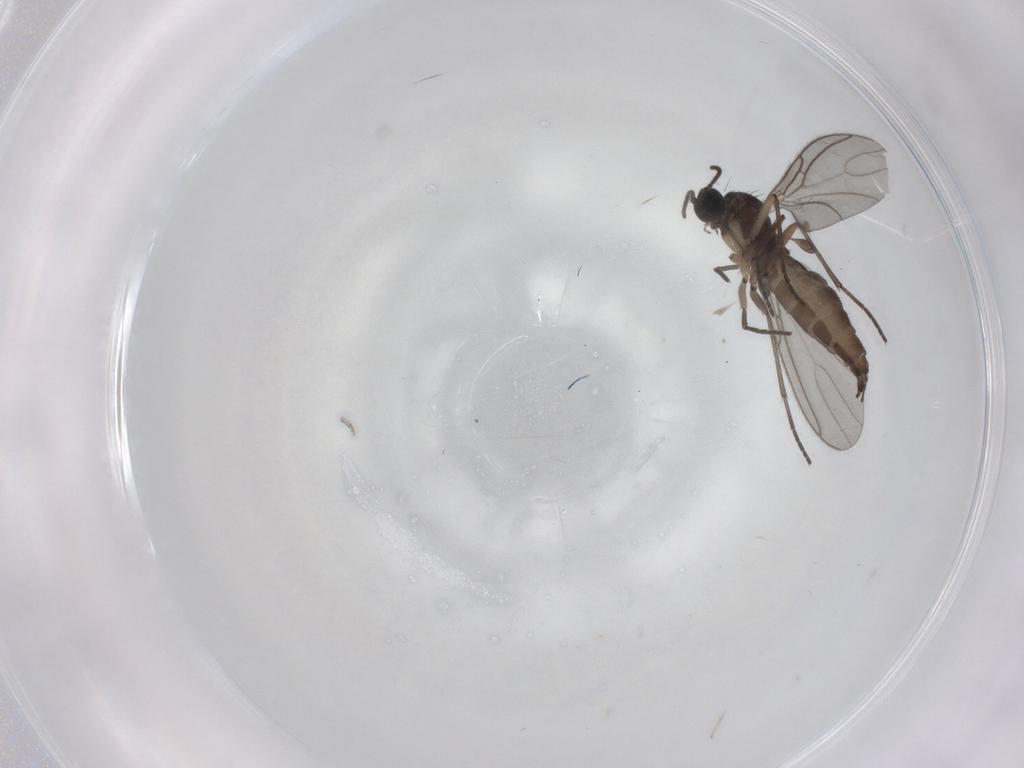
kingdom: Animalia
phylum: Arthropoda
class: Insecta
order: Diptera
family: Sciaridae
